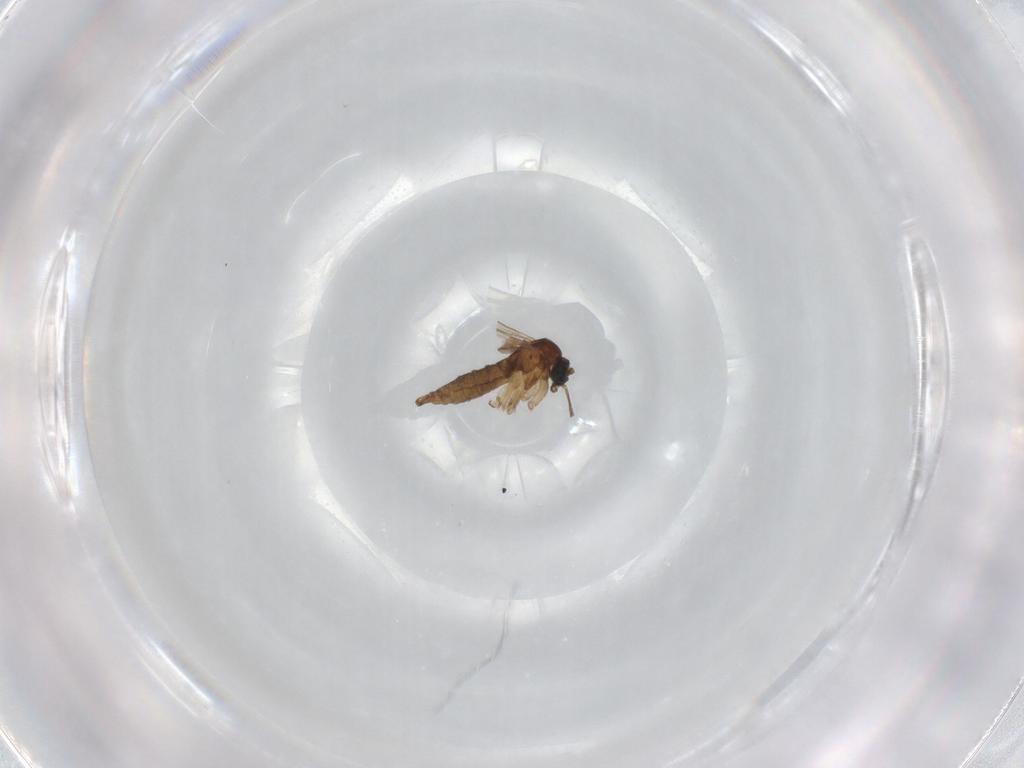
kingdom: Animalia
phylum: Arthropoda
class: Insecta
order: Diptera
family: Sciaridae
